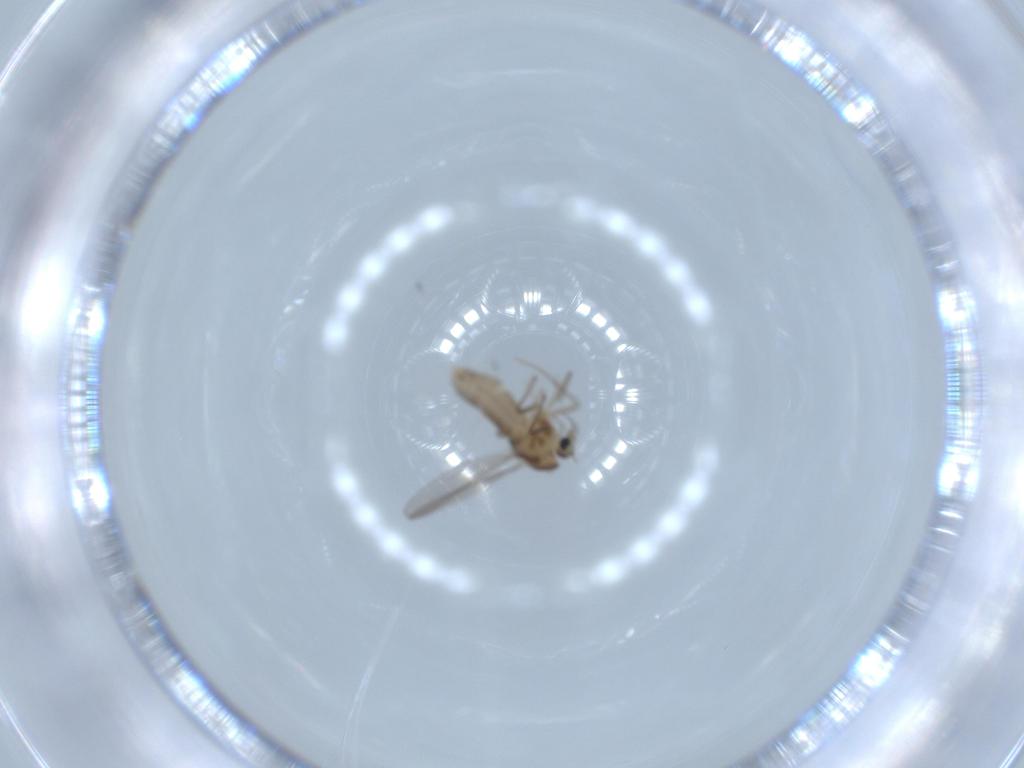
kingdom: Animalia
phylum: Arthropoda
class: Insecta
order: Diptera
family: Chironomidae
